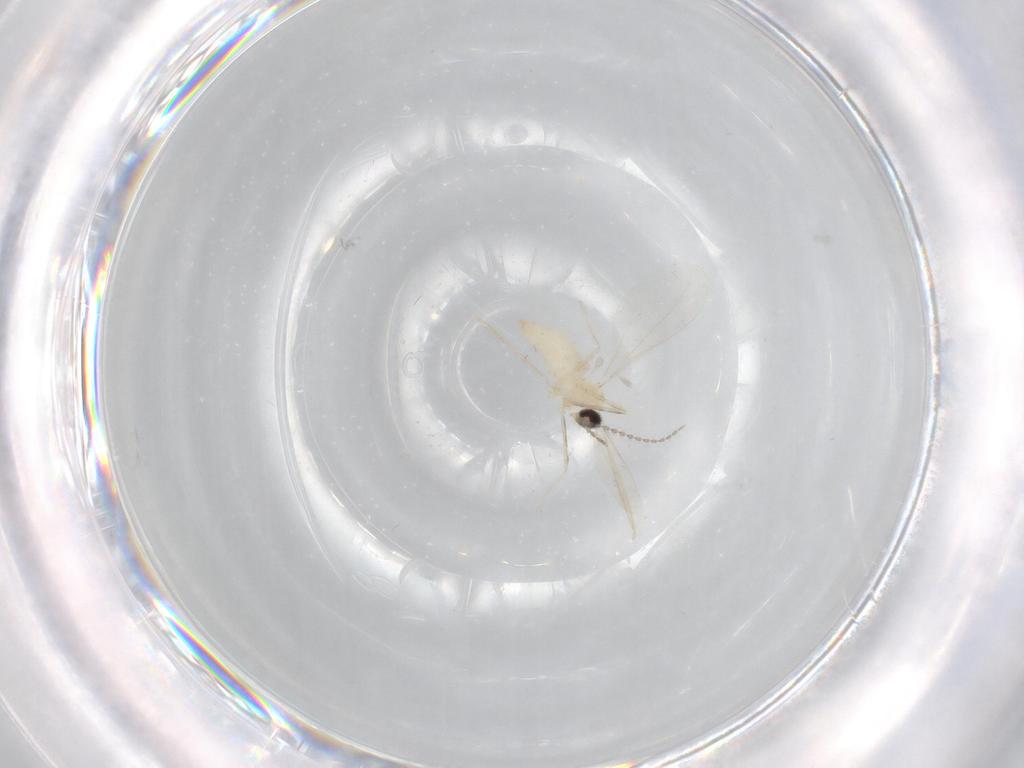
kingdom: Animalia
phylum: Arthropoda
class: Insecta
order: Diptera
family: Cecidomyiidae
